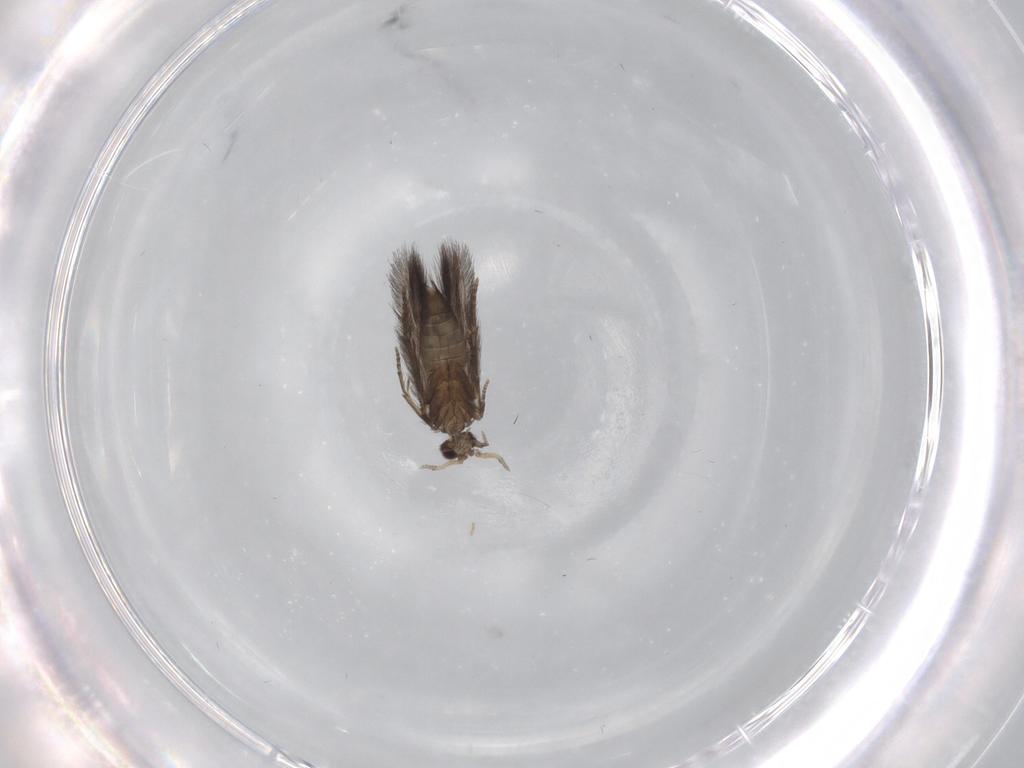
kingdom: Animalia
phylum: Arthropoda
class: Insecta
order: Trichoptera
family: Hydroptilidae
